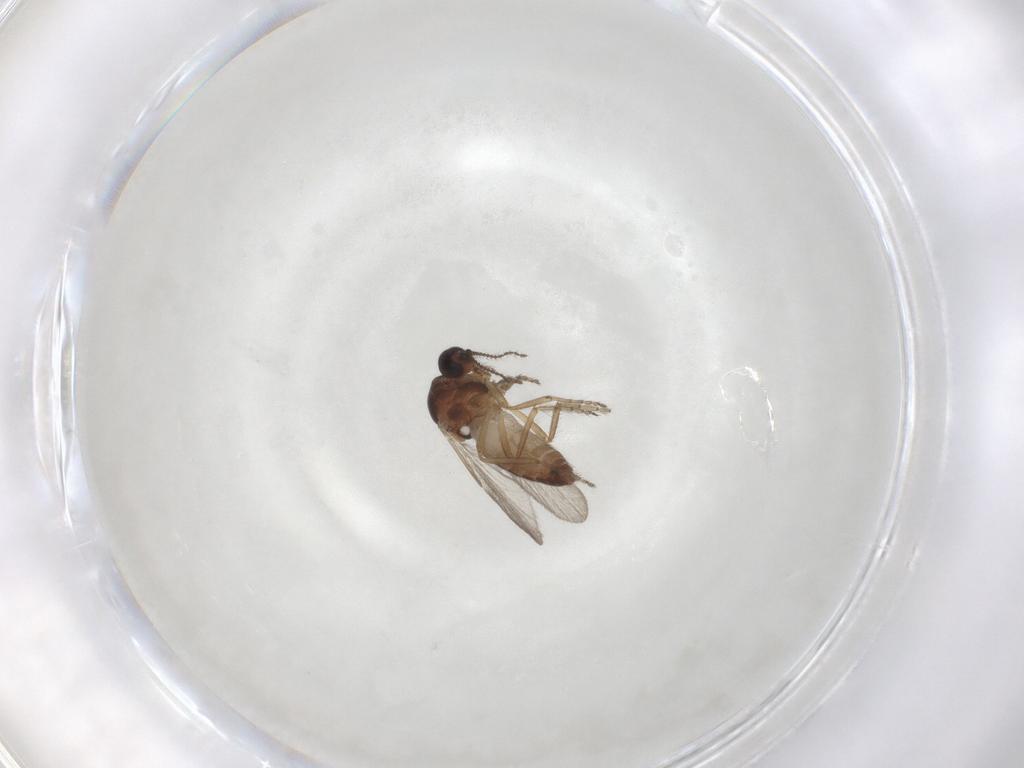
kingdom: Animalia
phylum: Arthropoda
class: Insecta
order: Diptera
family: Ceratopogonidae
